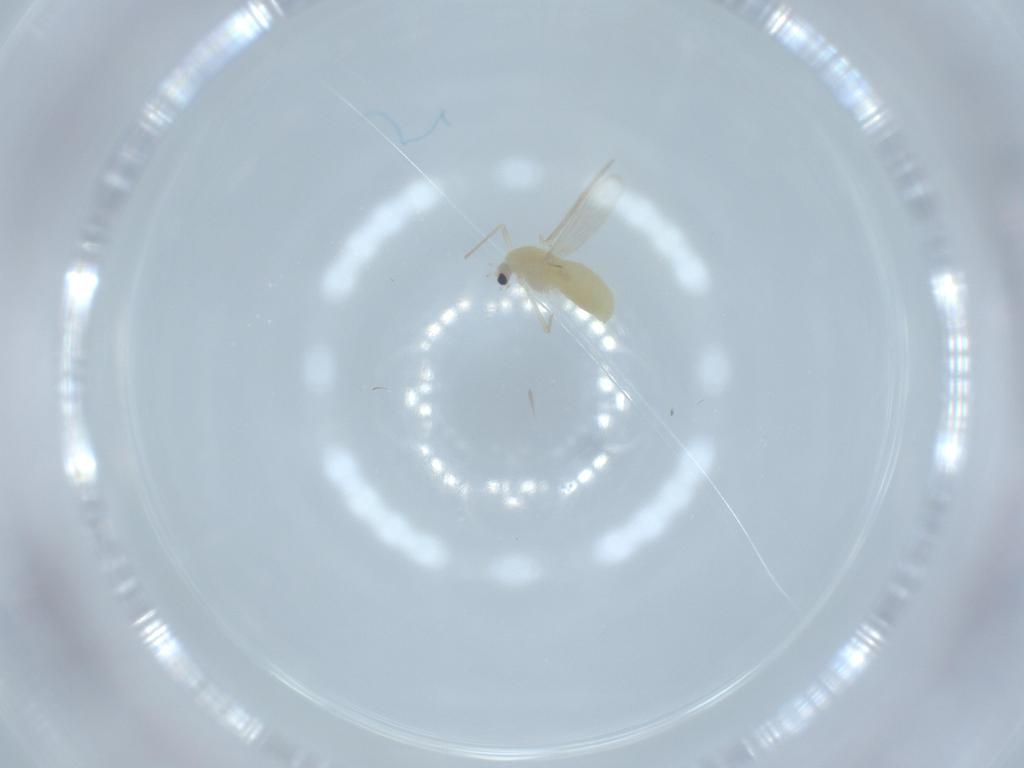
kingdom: Animalia
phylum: Arthropoda
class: Insecta
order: Diptera
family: Chironomidae
